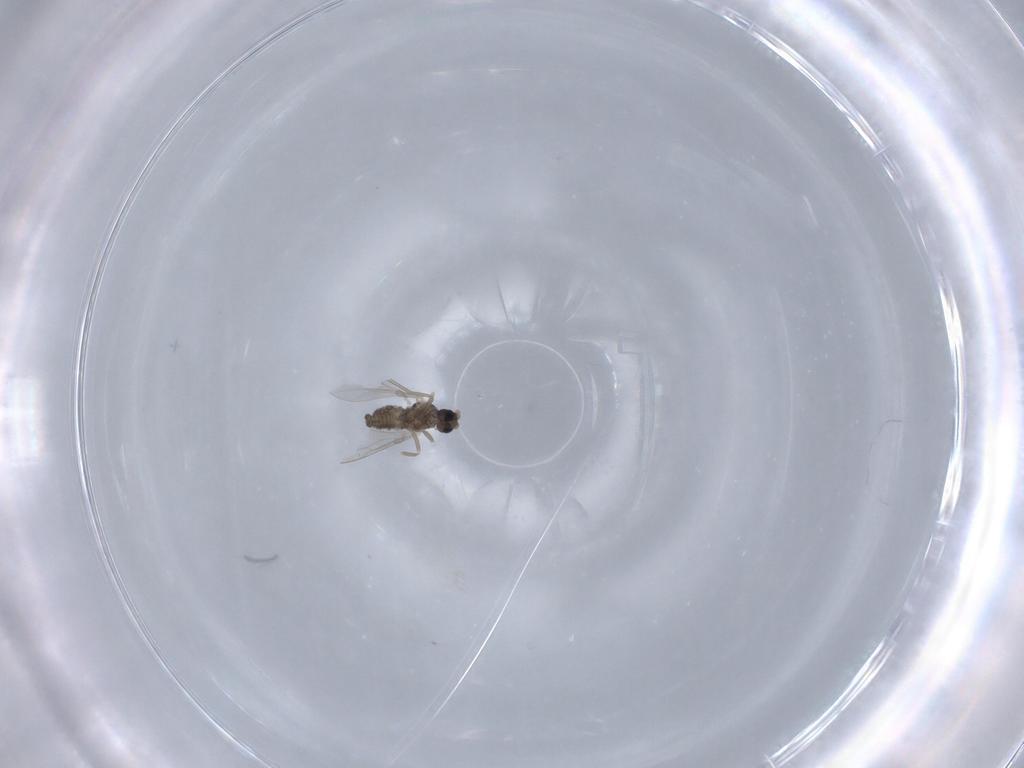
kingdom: Animalia
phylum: Arthropoda
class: Insecta
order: Diptera
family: Cecidomyiidae
